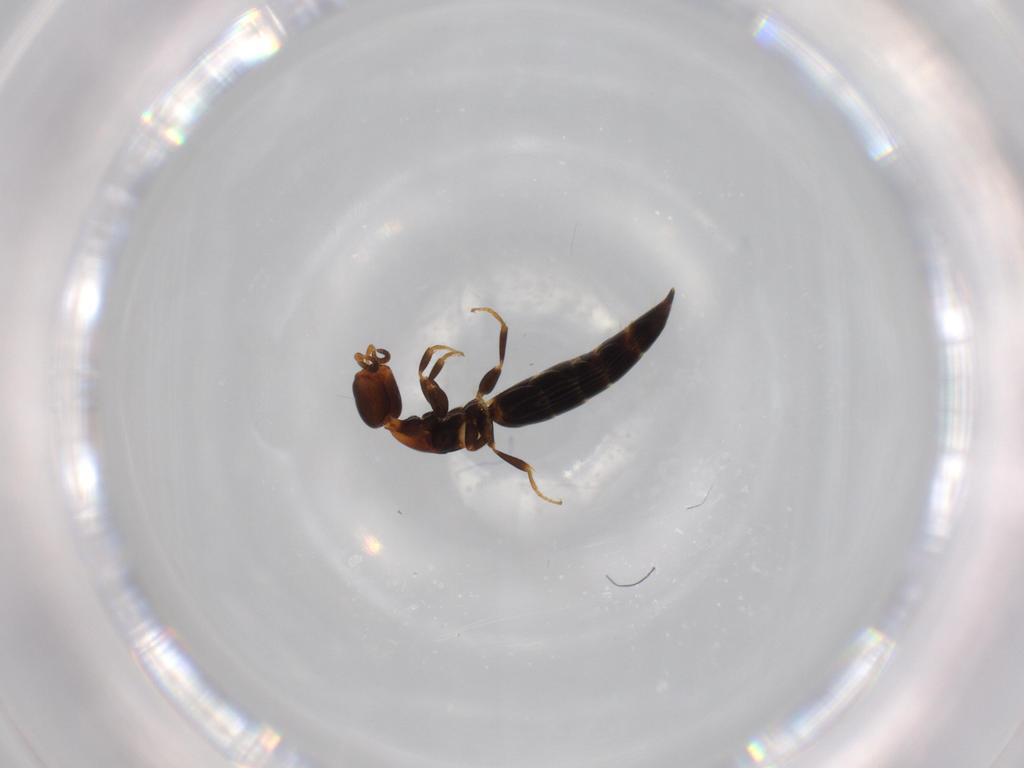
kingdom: Animalia
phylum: Arthropoda
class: Insecta
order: Hymenoptera
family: Bethylidae
